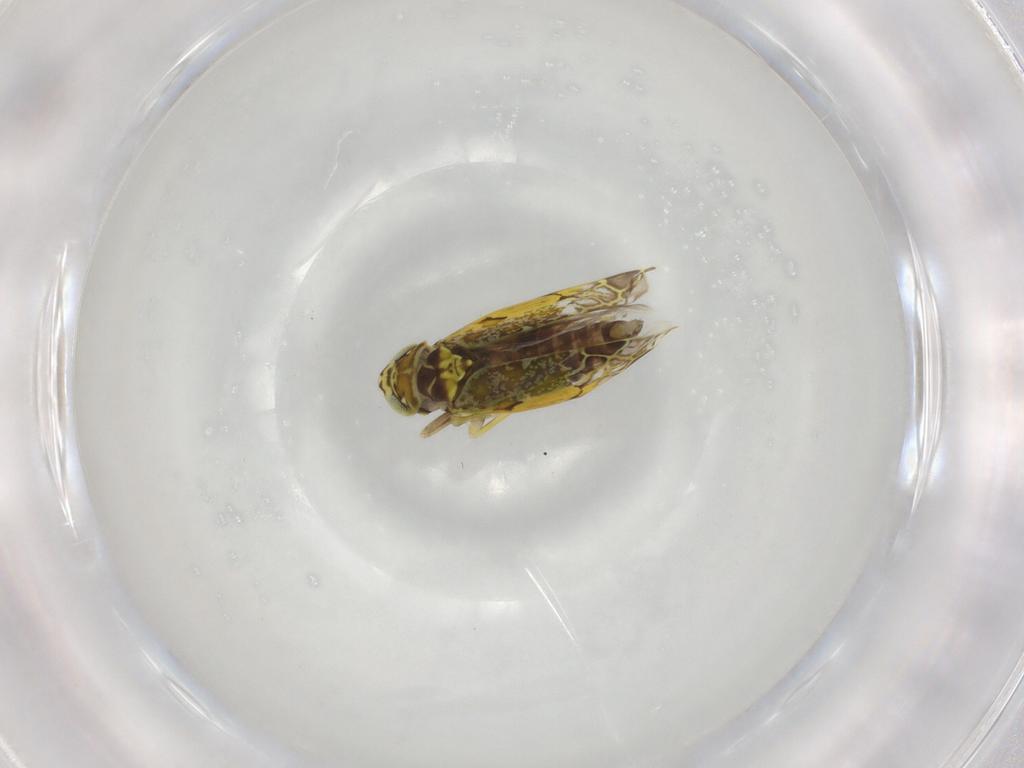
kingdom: Animalia
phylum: Arthropoda
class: Insecta
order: Hemiptera
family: Cicadellidae
